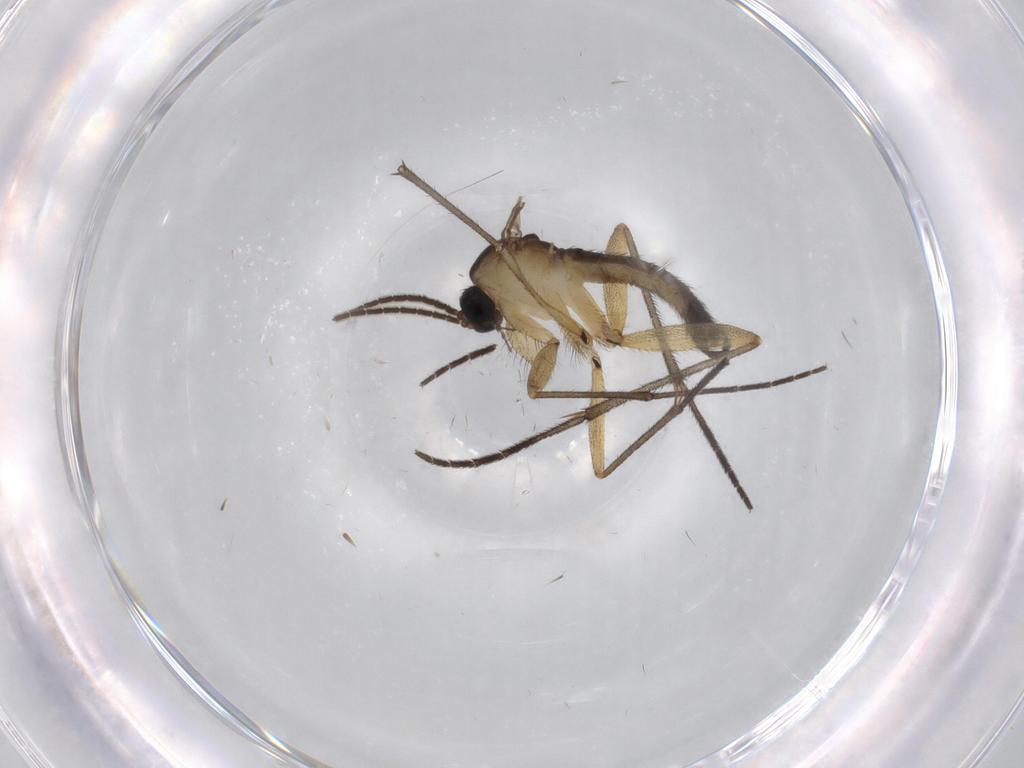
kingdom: Animalia
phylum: Arthropoda
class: Insecta
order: Diptera
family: Sciaridae
